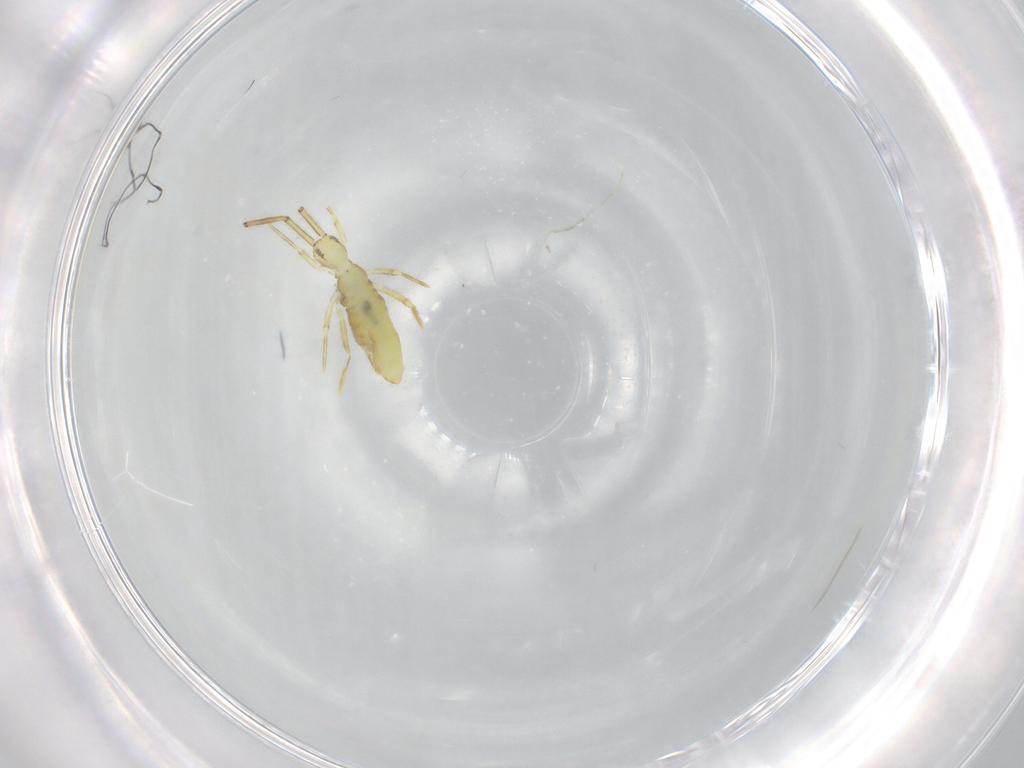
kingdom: Animalia
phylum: Arthropoda
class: Collembola
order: Entomobryomorpha
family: Paronellidae
